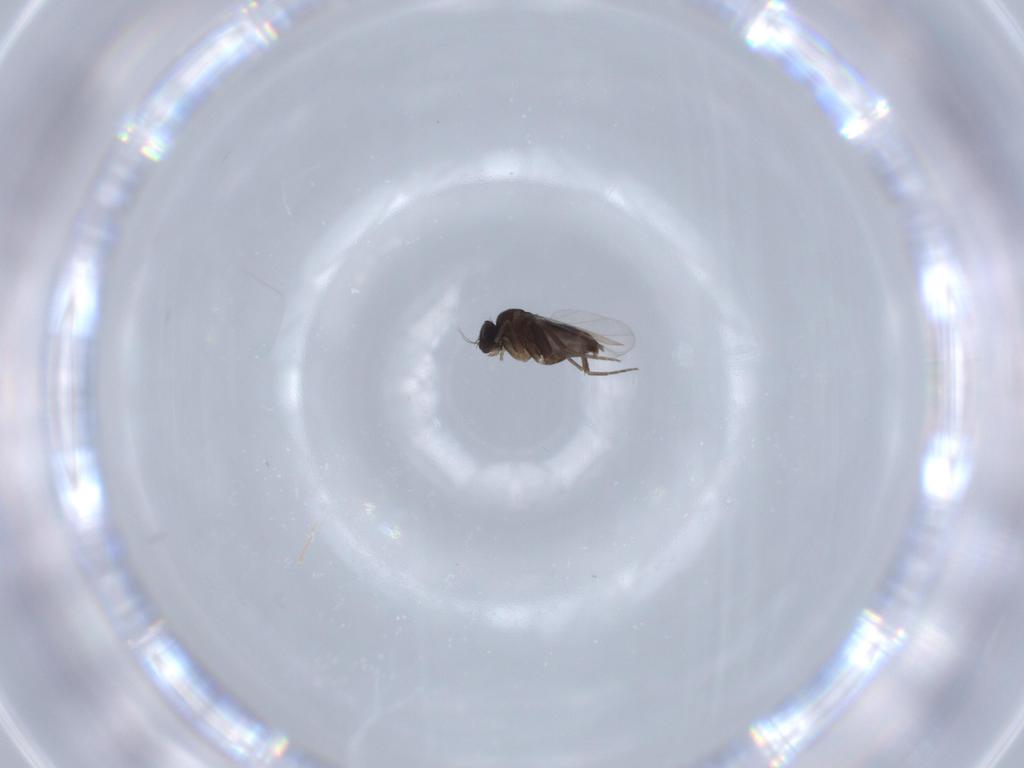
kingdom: Animalia
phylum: Arthropoda
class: Insecta
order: Diptera
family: Phoridae
